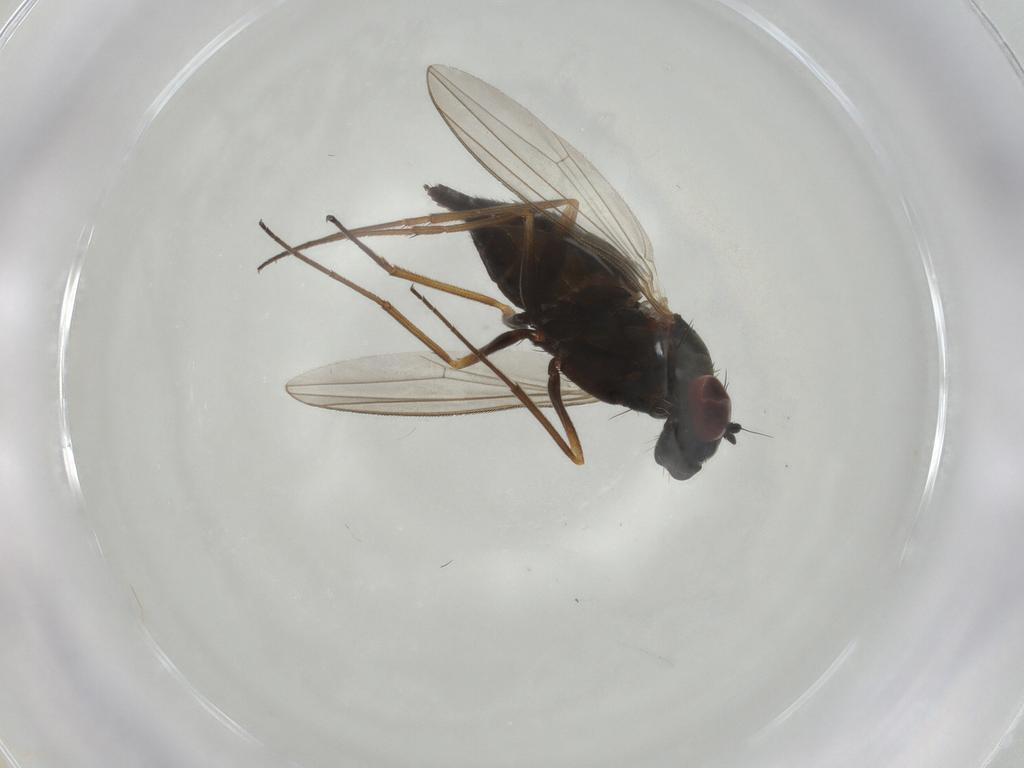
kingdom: Animalia
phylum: Arthropoda
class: Insecta
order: Diptera
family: Dolichopodidae
